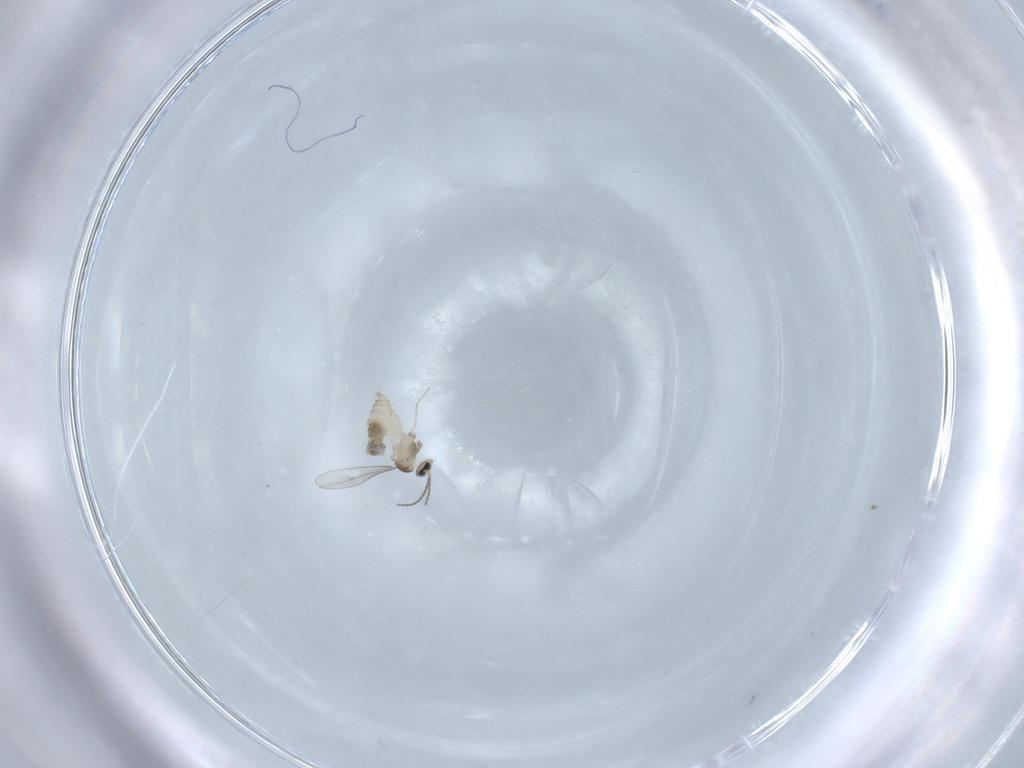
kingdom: Animalia
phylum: Arthropoda
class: Insecta
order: Diptera
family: Cecidomyiidae
